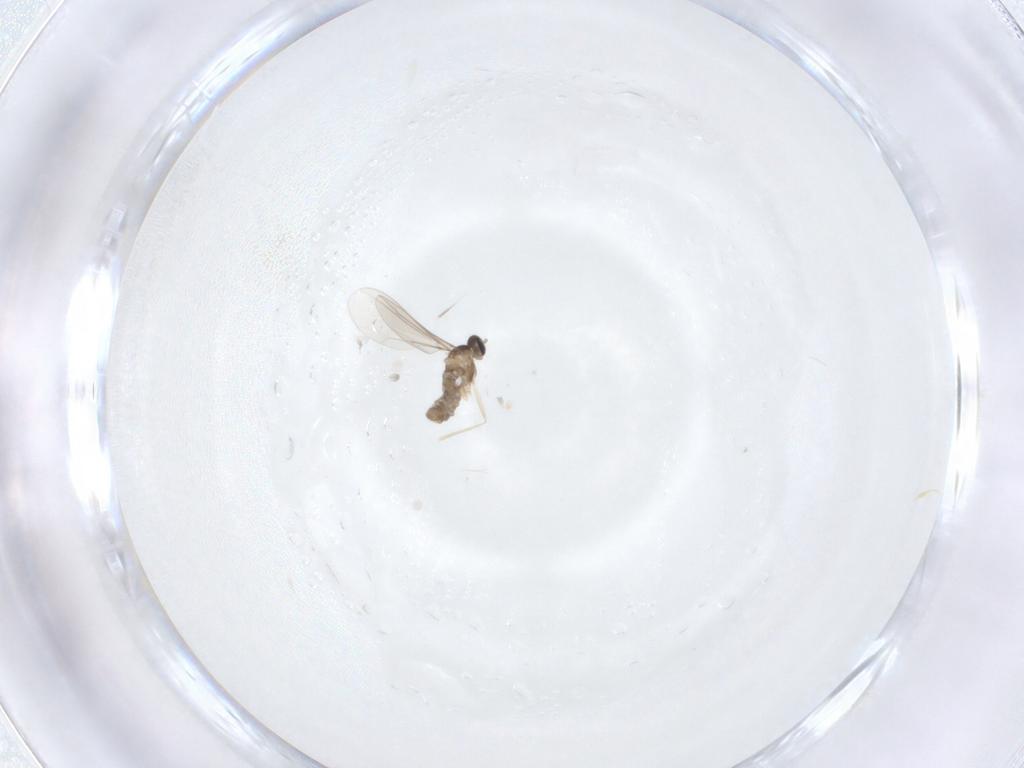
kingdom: Animalia
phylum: Arthropoda
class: Insecta
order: Diptera
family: Cecidomyiidae
